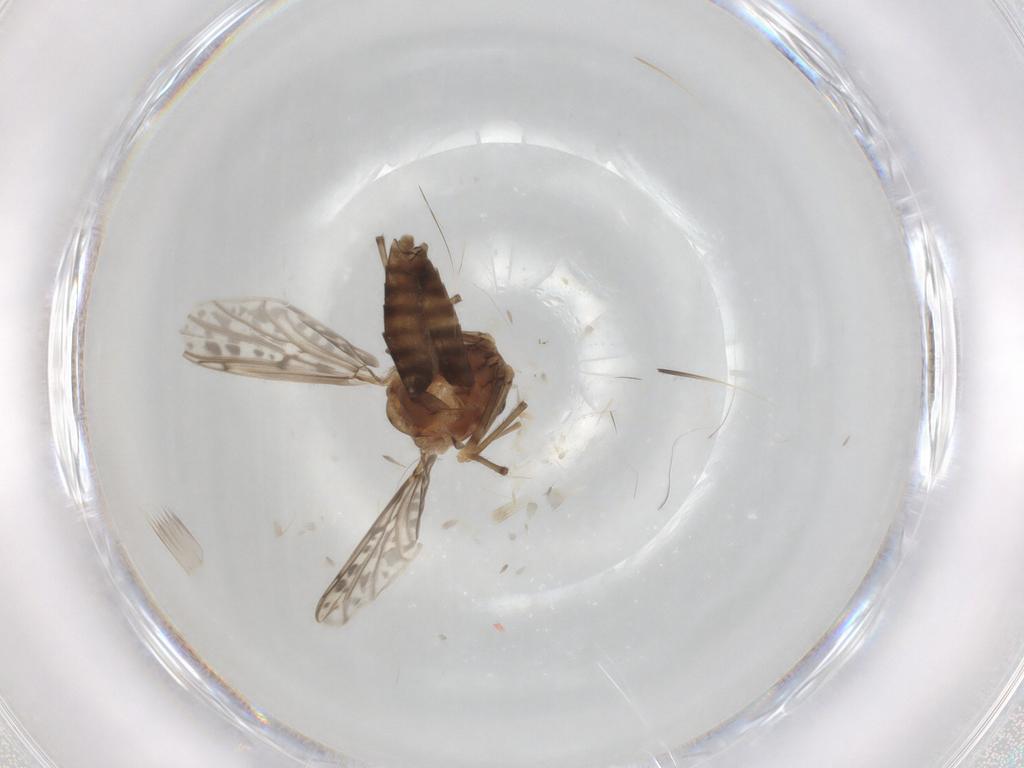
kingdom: Animalia
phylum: Arthropoda
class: Insecta
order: Diptera
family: Chironomidae
